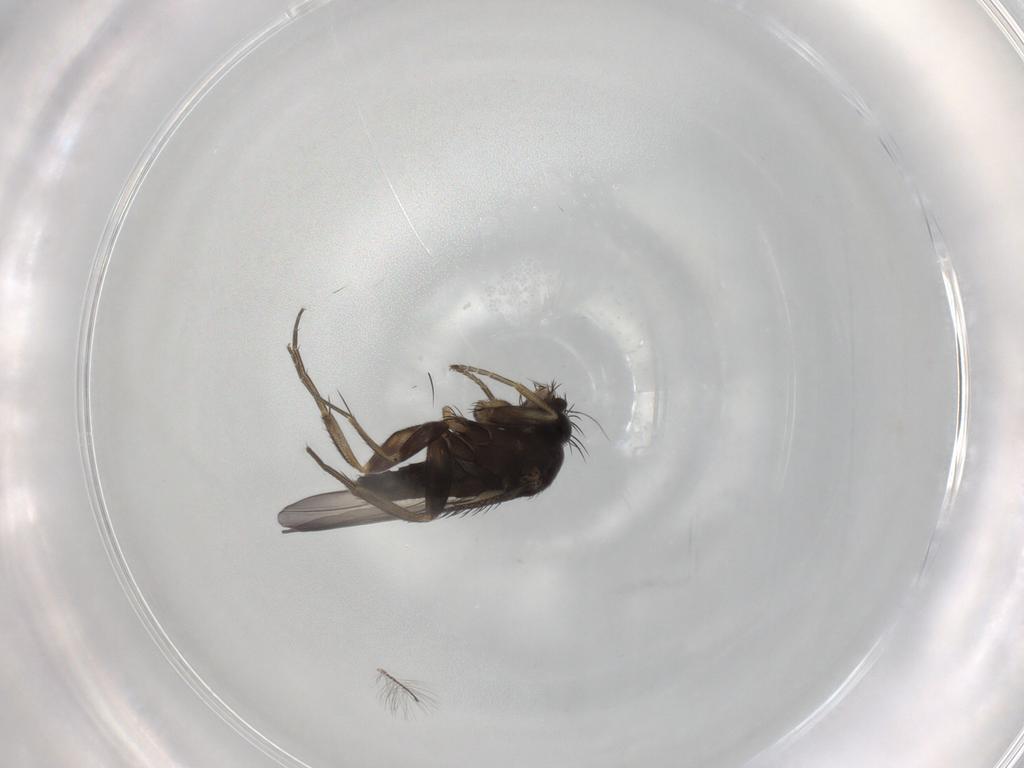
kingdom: Animalia
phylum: Arthropoda
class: Insecta
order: Diptera
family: Phoridae
